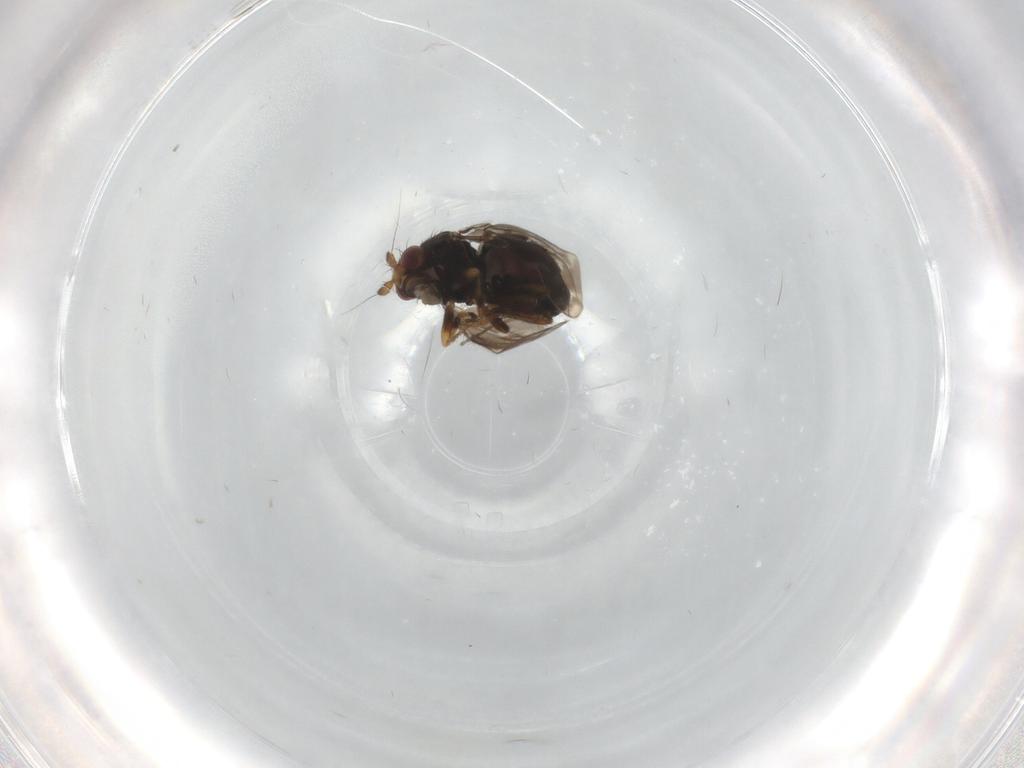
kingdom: Animalia
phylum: Arthropoda
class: Insecta
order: Diptera
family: Sphaeroceridae
